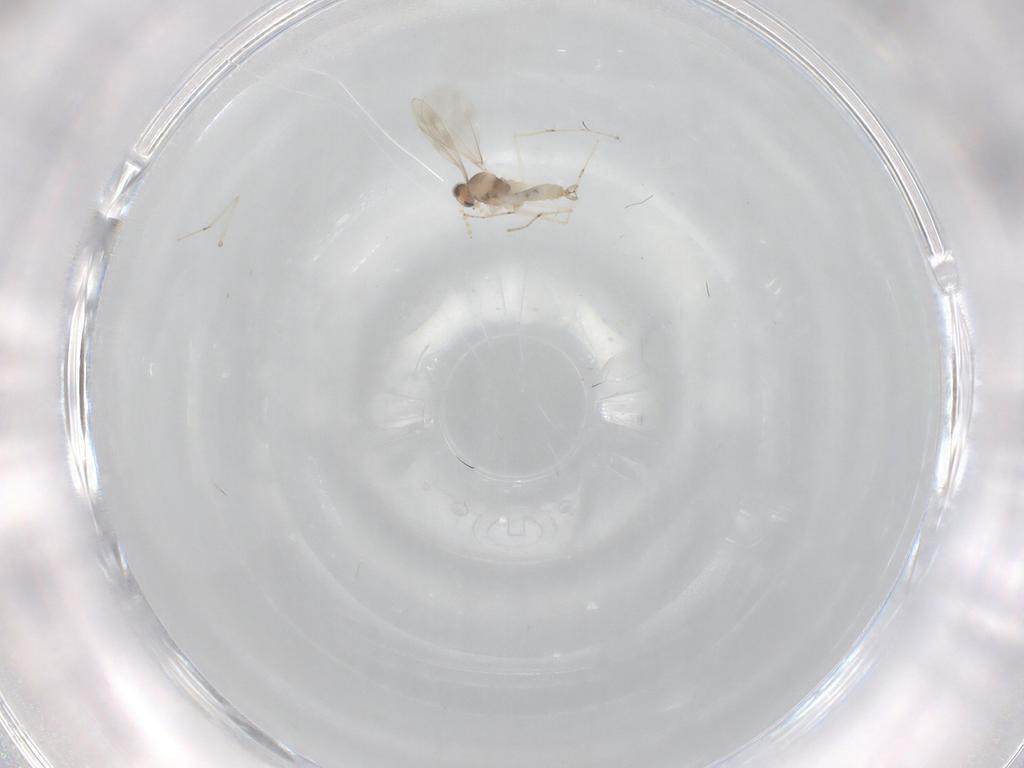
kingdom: Animalia
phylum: Arthropoda
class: Insecta
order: Diptera
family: Cecidomyiidae
